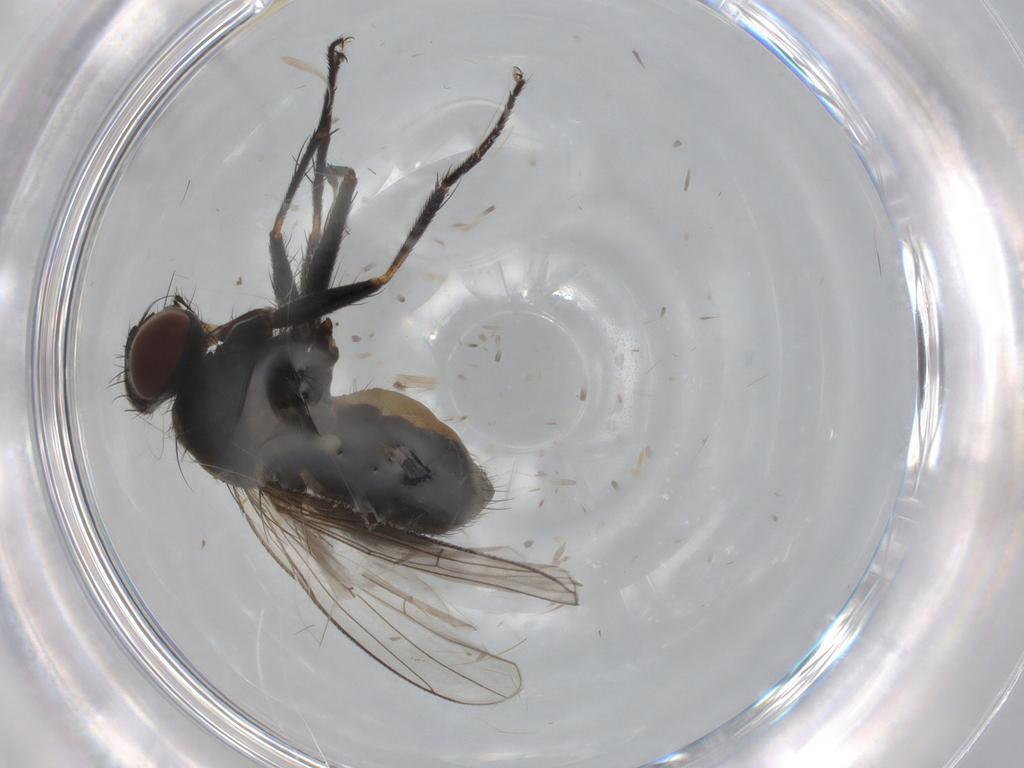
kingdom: Animalia
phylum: Arthropoda
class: Insecta
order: Diptera
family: Muscidae
